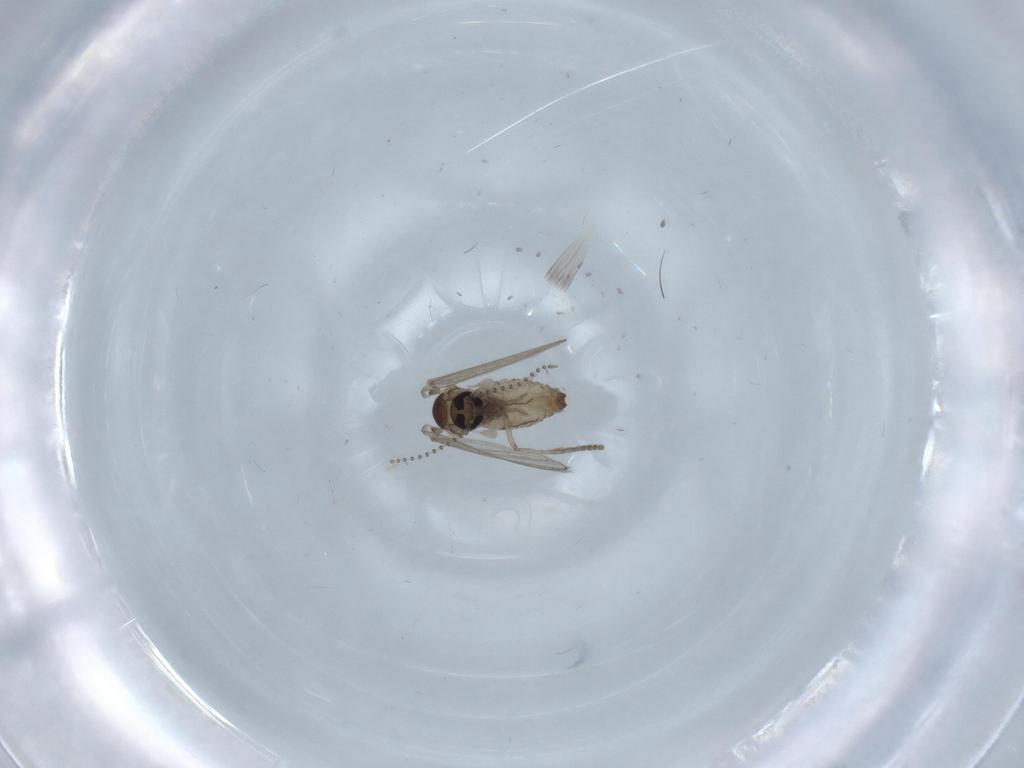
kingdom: Animalia
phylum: Arthropoda
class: Insecta
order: Diptera
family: Psychodidae
